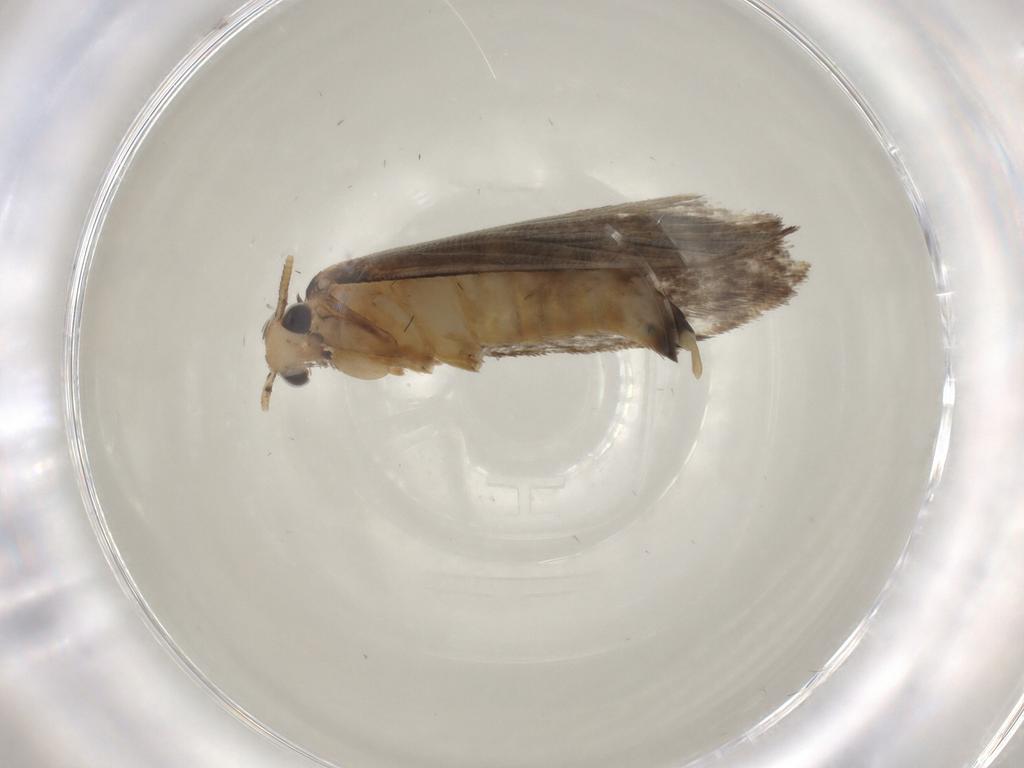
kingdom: Animalia
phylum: Arthropoda
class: Insecta
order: Lepidoptera
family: Gelechiidae
